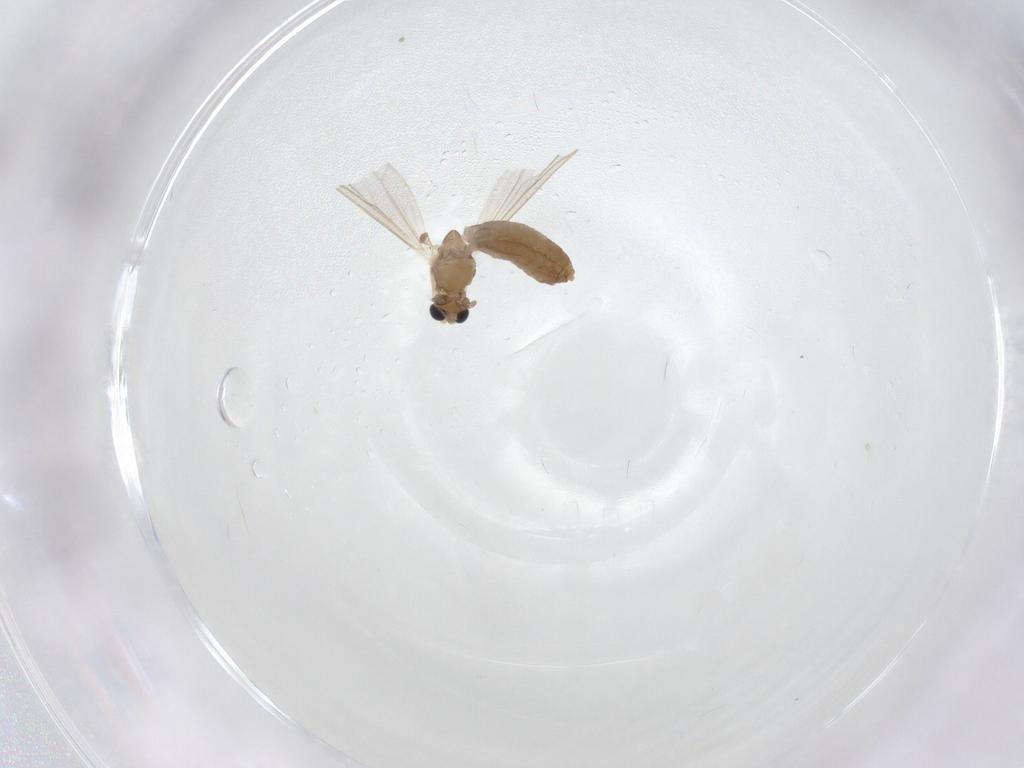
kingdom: Animalia
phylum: Arthropoda
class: Insecta
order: Diptera
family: Chironomidae
